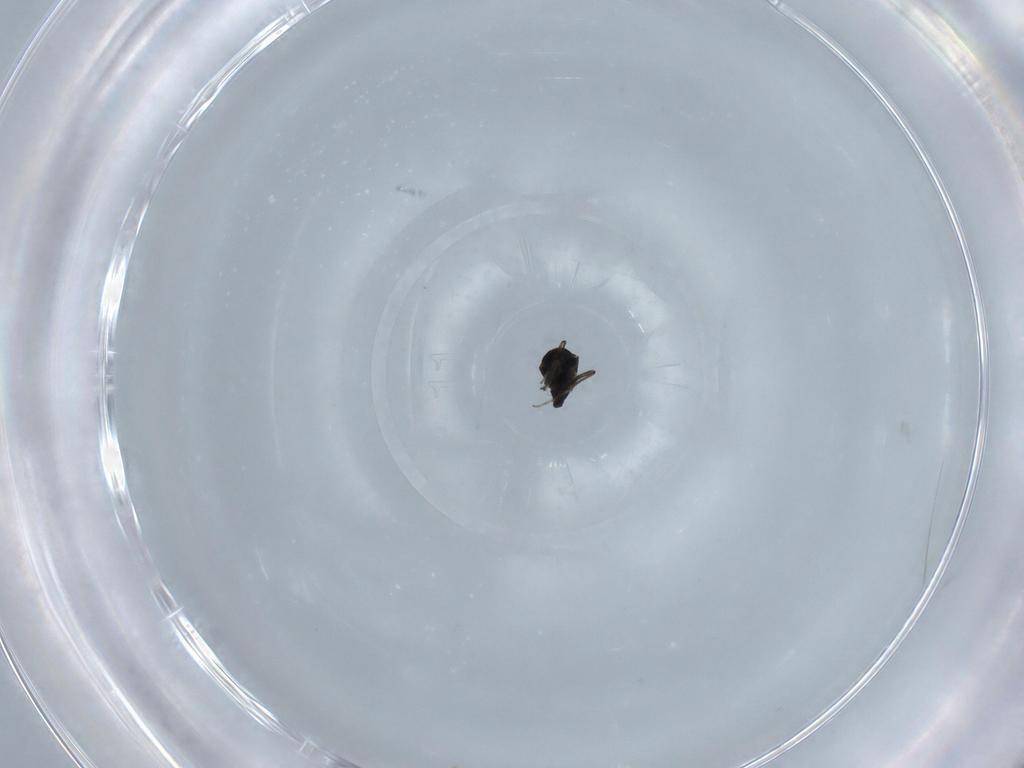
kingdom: Animalia
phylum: Arthropoda
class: Insecta
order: Diptera
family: Ceratopogonidae
